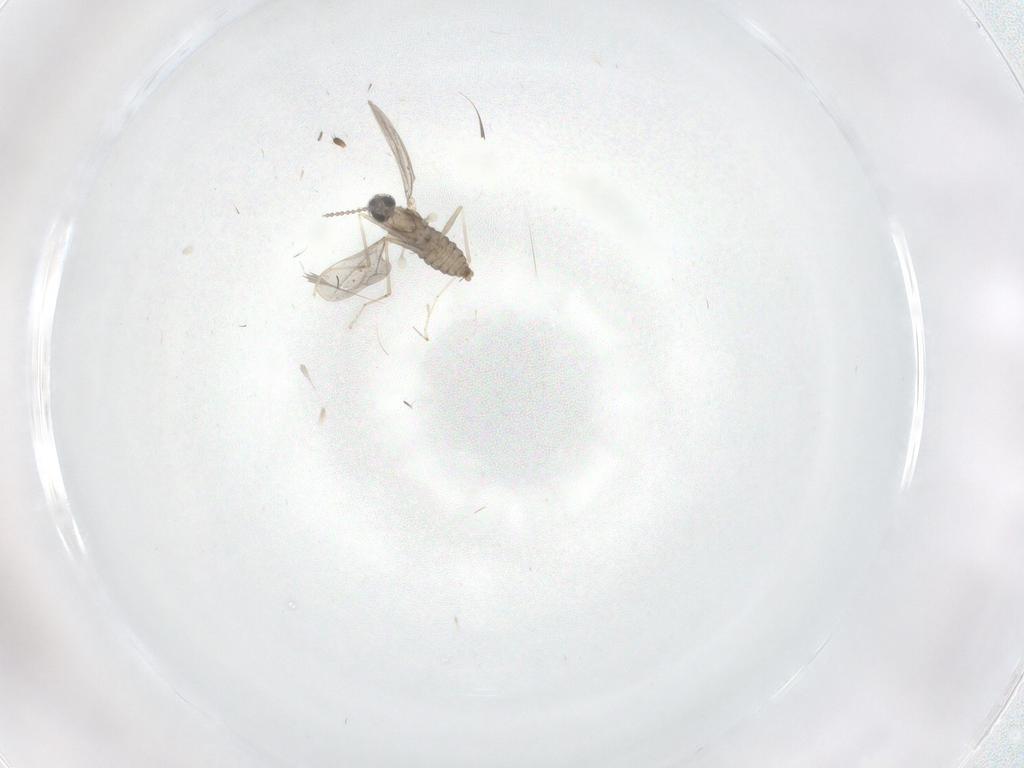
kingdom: Animalia
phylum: Arthropoda
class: Insecta
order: Diptera
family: Cecidomyiidae
